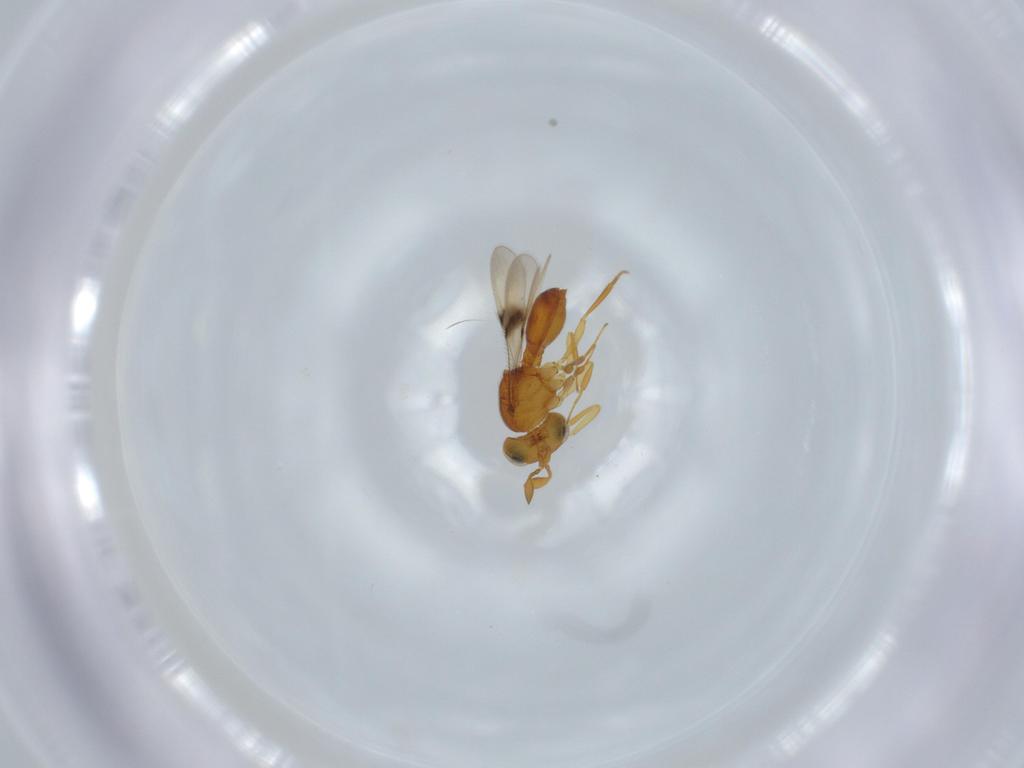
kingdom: Animalia
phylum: Arthropoda
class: Insecta
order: Hymenoptera
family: Scelionidae
